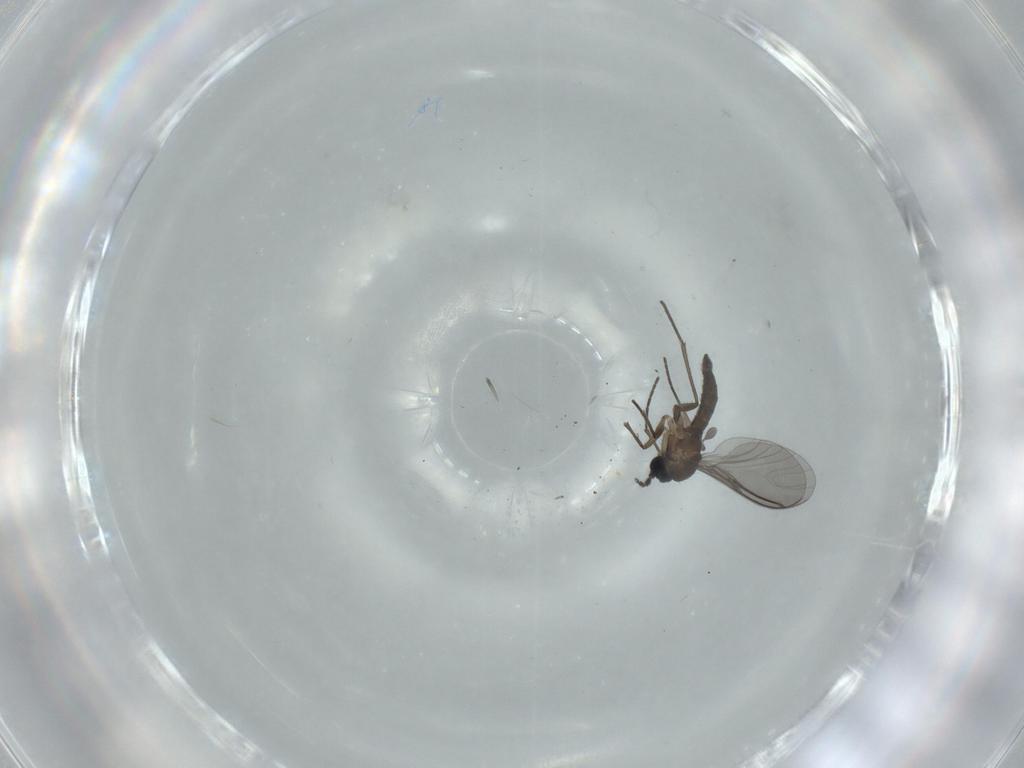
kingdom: Animalia
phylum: Arthropoda
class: Insecta
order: Diptera
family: Sciaridae
